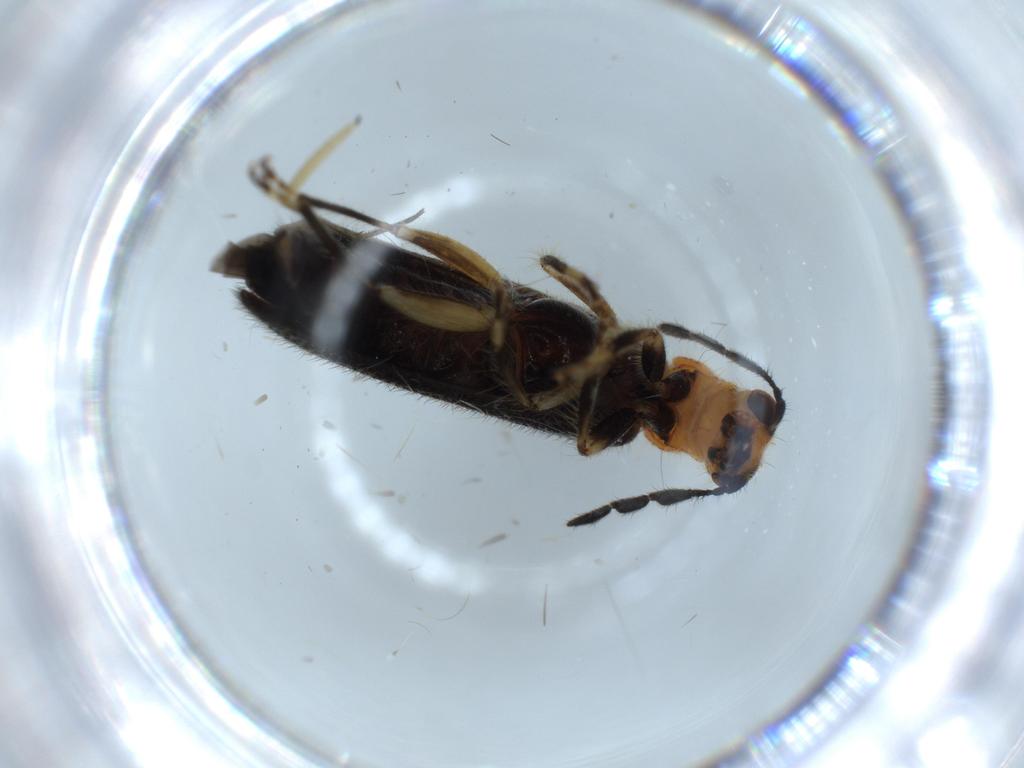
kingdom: Animalia
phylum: Arthropoda
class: Insecta
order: Coleoptera
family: Cleridae
